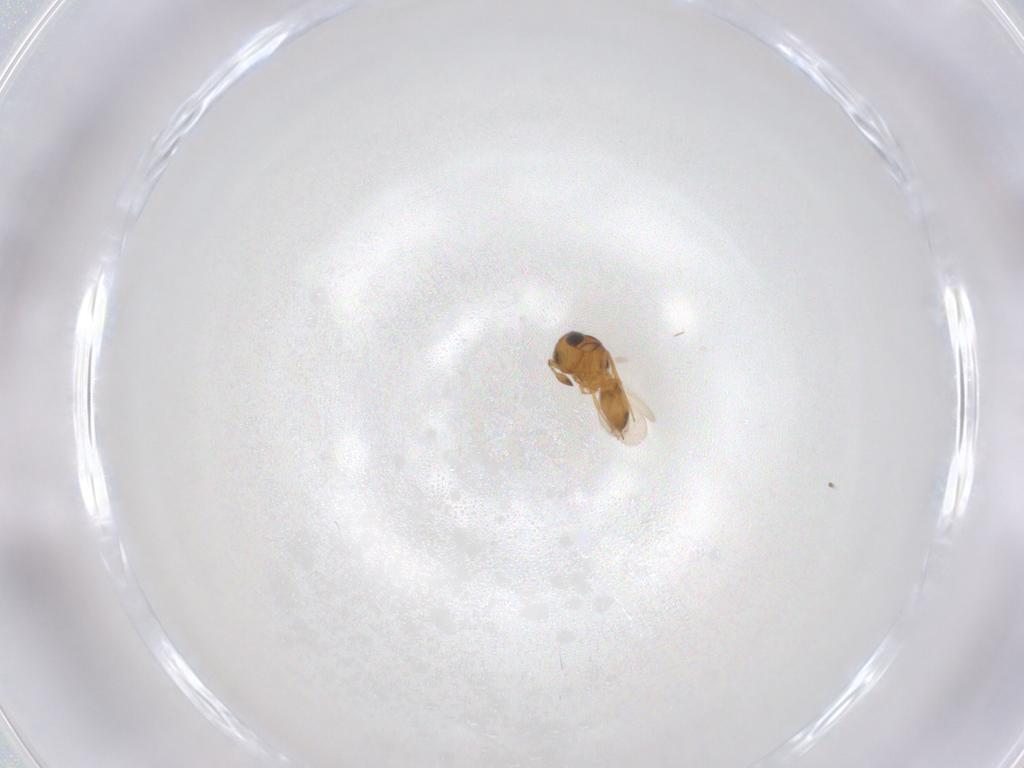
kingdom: Animalia
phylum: Arthropoda
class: Insecta
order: Hymenoptera
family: Scelionidae
